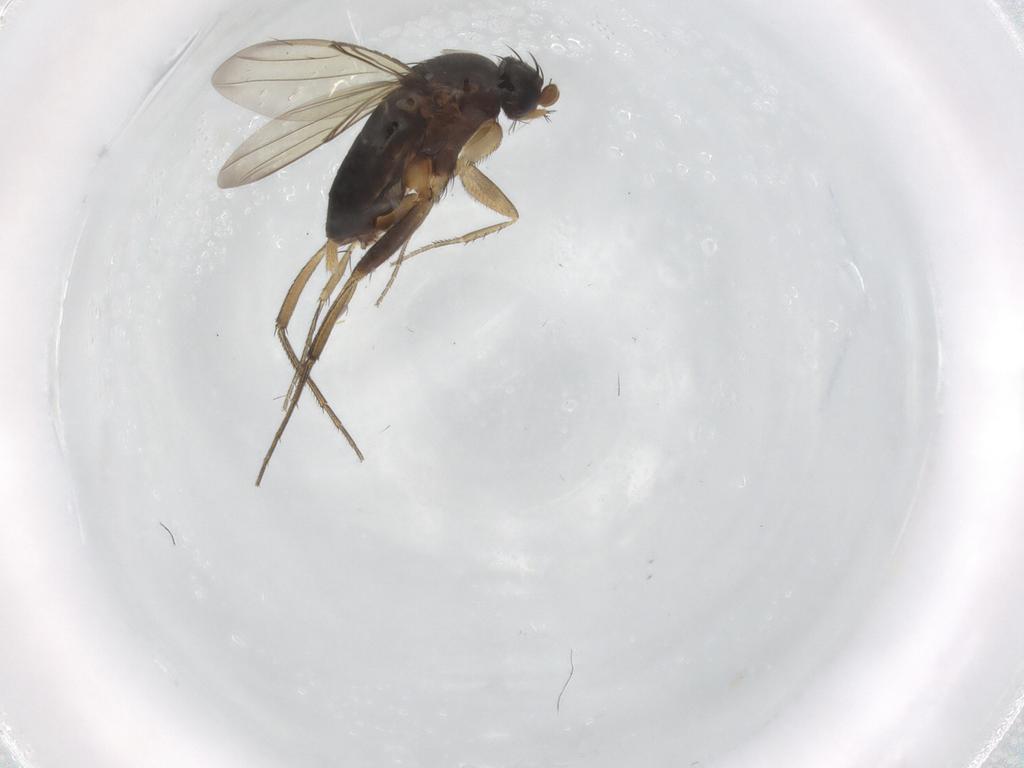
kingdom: Animalia
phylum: Arthropoda
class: Insecta
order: Diptera
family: Phoridae
